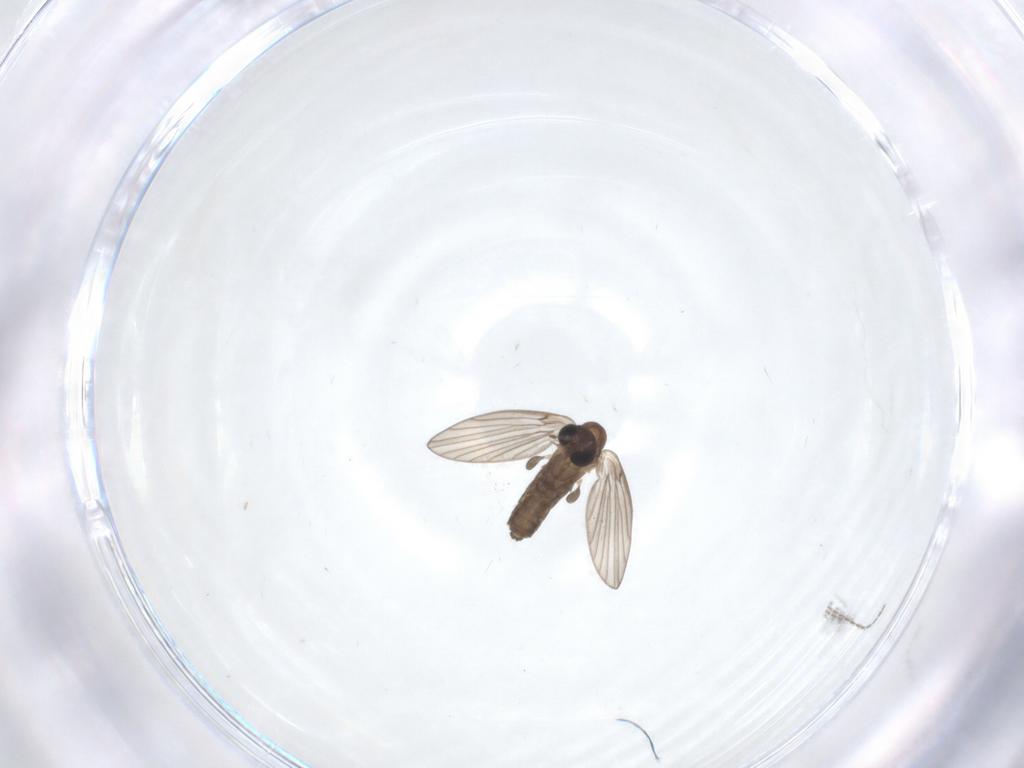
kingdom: Animalia
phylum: Arthropoda
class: Insecta
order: Diptera
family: Psychodidae
